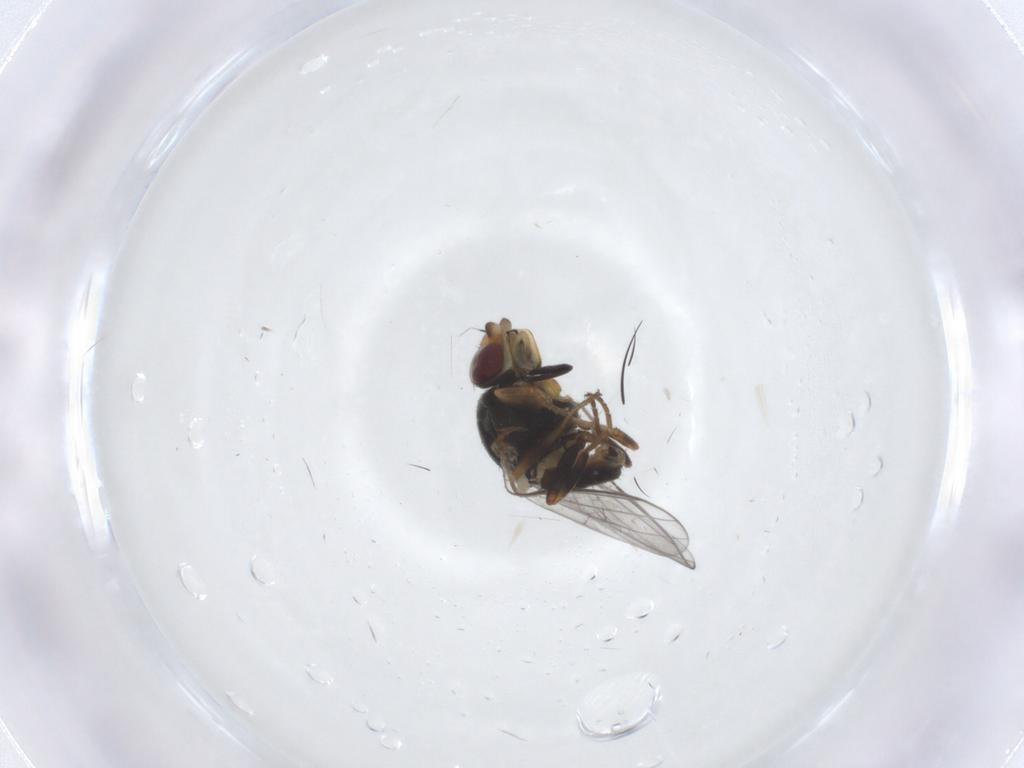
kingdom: Animalia
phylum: Arthropoda
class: Insecta
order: Diptera
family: Chloropidae
